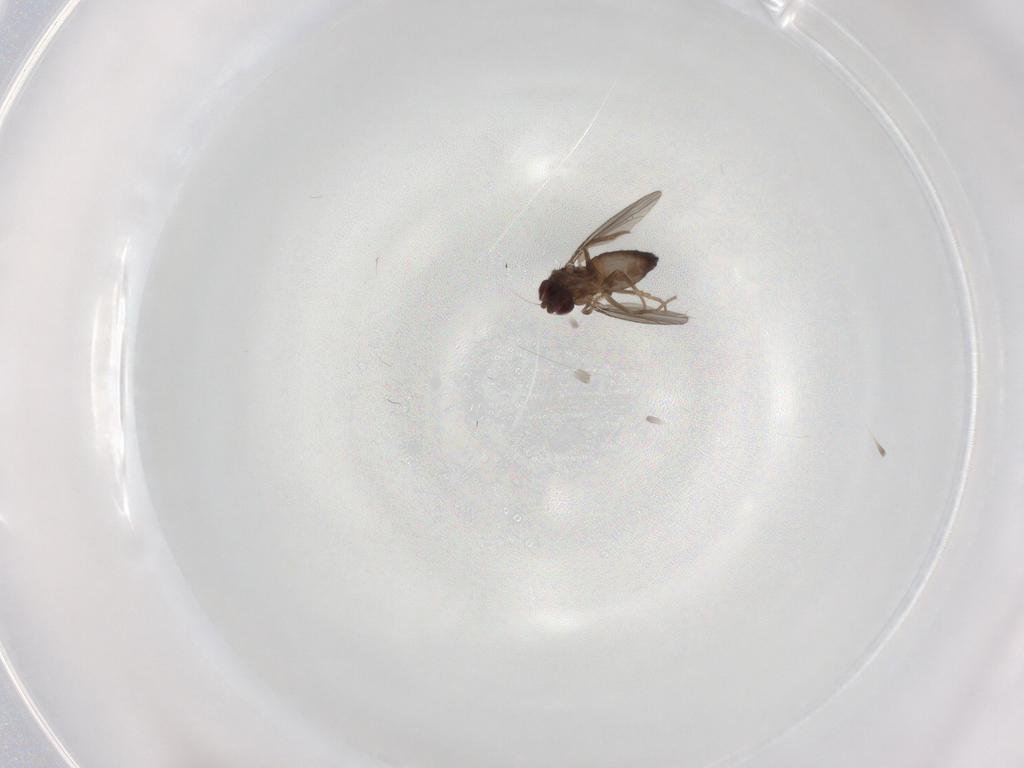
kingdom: Animalia
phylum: Arthropoda
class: Insecta
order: Diptera
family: Dolichopodidae
